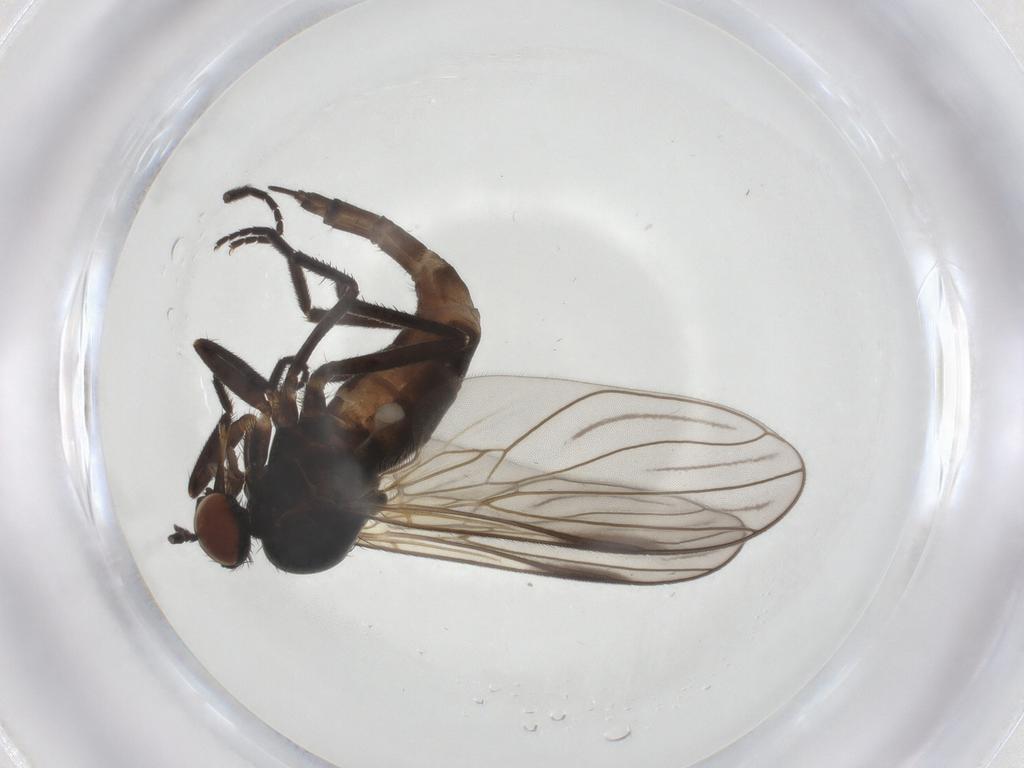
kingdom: Animalia
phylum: Arthropoda
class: Insecta
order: Diptera
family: Empididae
